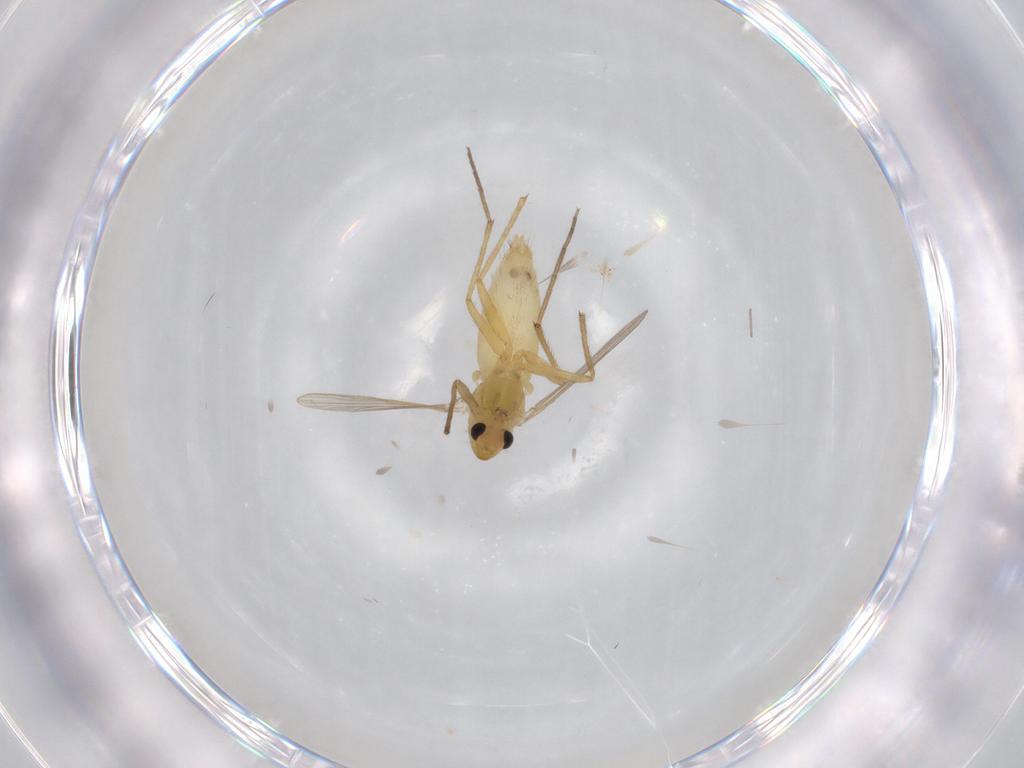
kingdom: Animalia
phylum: Arthropoda
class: Insecta
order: Diptera
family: Chironomidae
